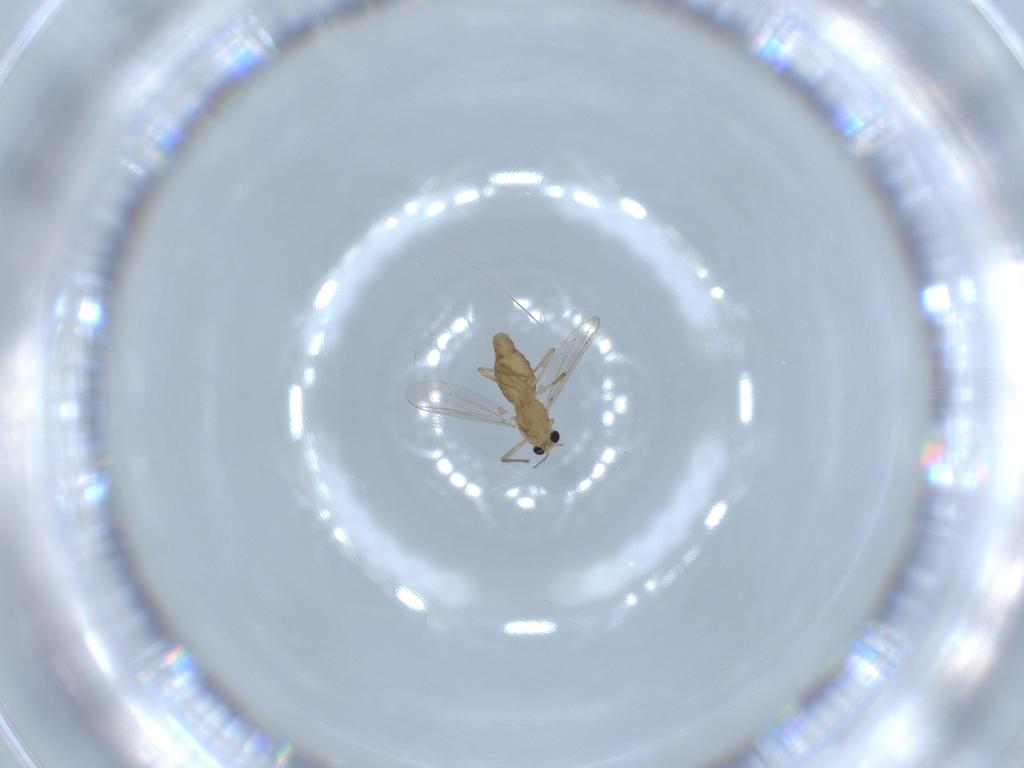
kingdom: Animalia
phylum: Arthropoda
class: Insecta
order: Diptera
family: Chironomidae
